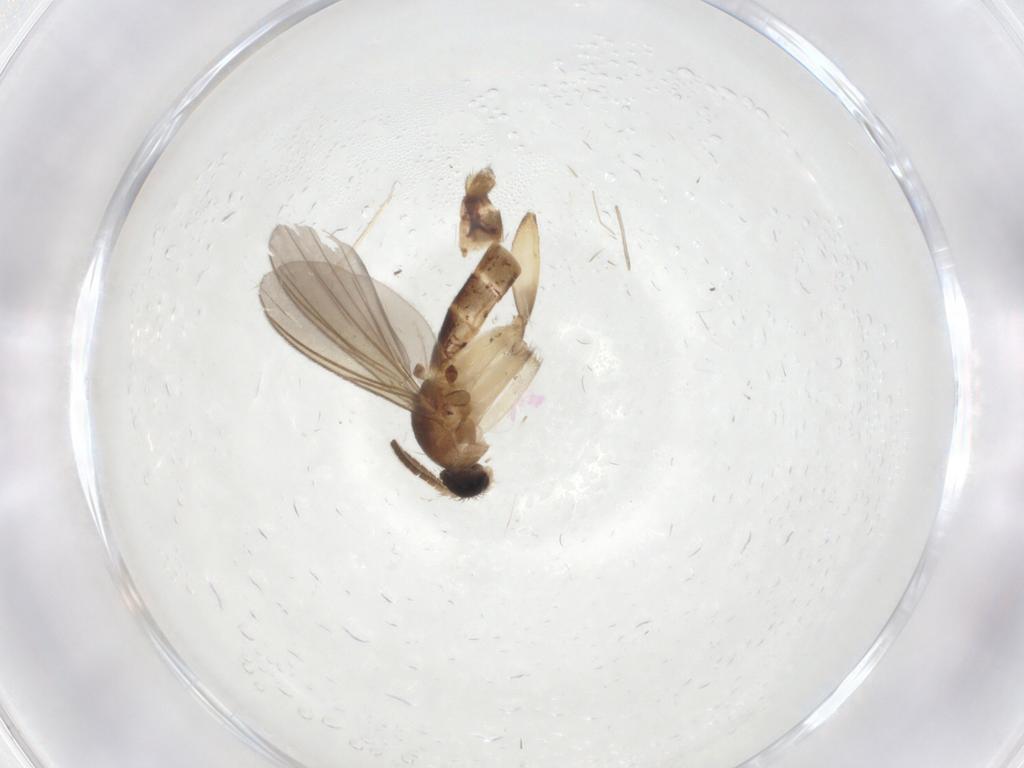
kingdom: Animalia
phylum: Arthropoda
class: Insecta
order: Diptera
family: Mycetophilidae
